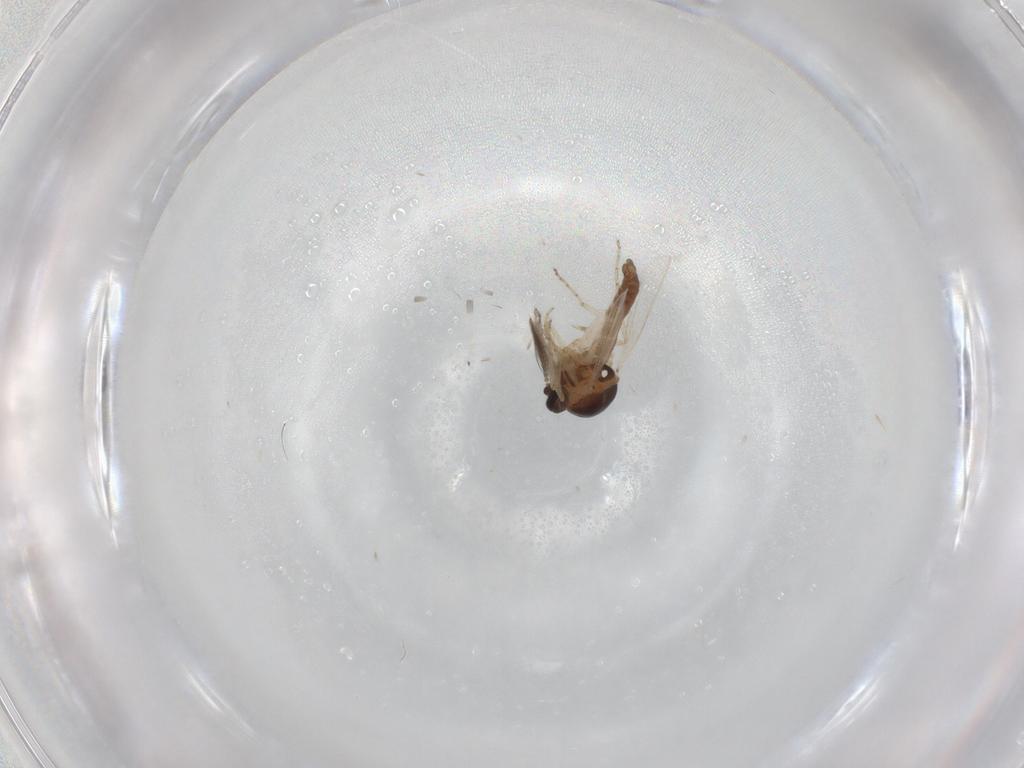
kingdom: Animalia
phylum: Arthropoda
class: Insecta
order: Diptera
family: Ceratopogonidae
